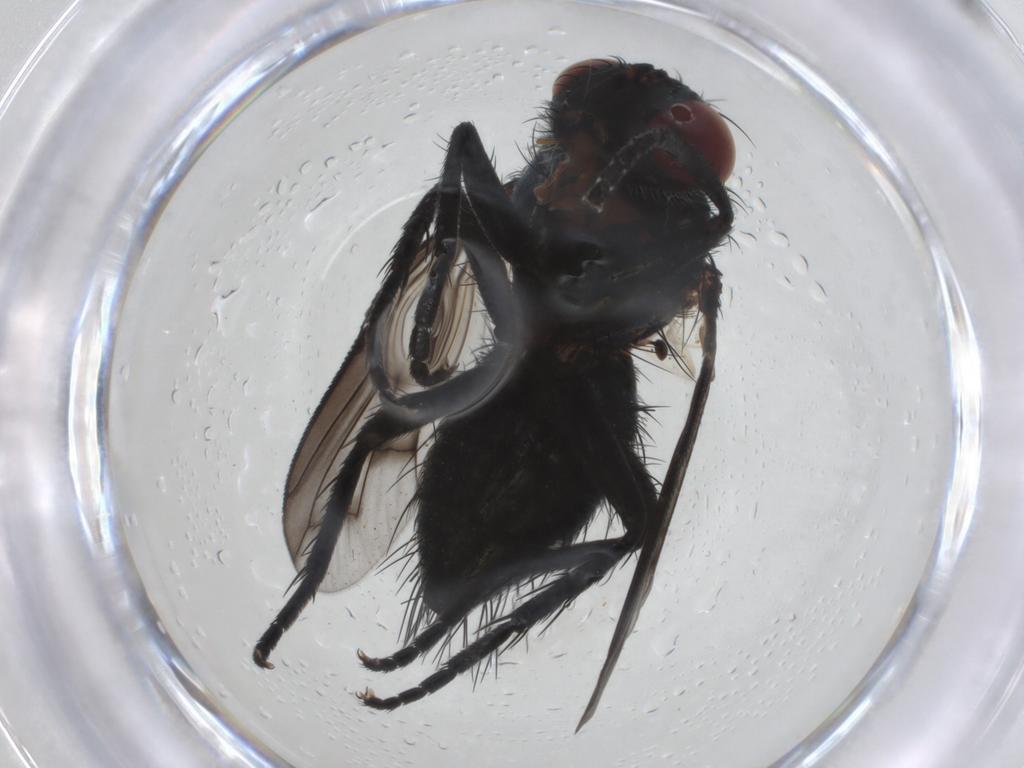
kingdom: Animalia
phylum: Arthropoda
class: Insecta
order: Diptera
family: Tachinidae
